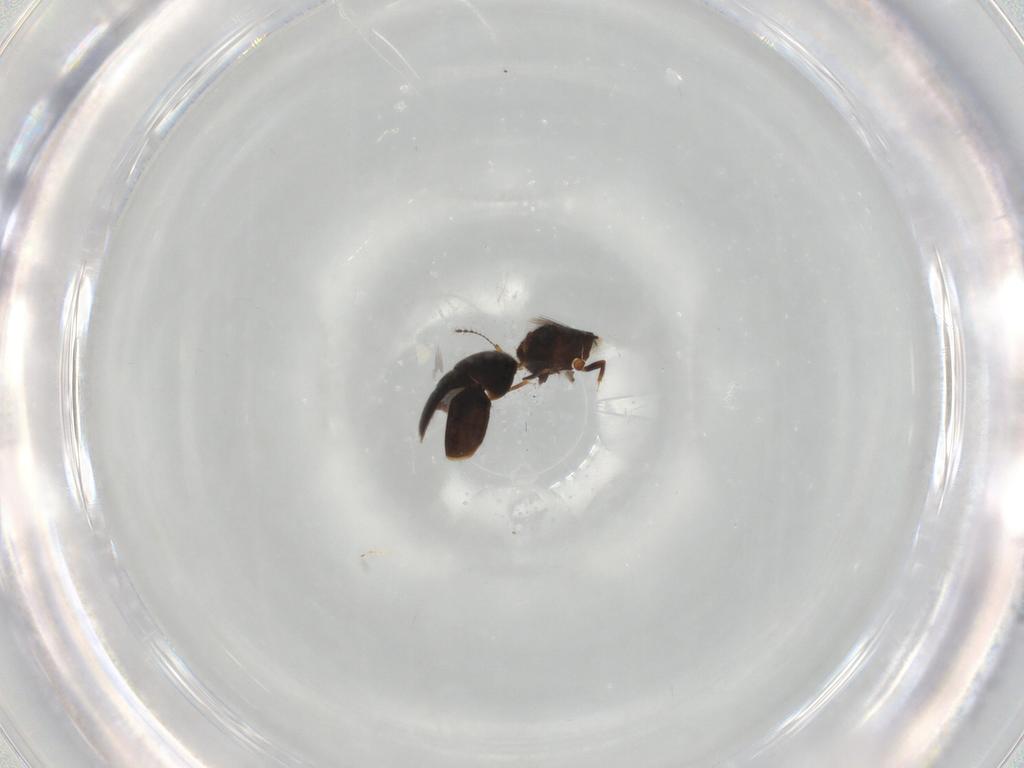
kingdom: Animalia
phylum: Arthropoda
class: Insecta
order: Coleoptera
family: Ptiliidae
